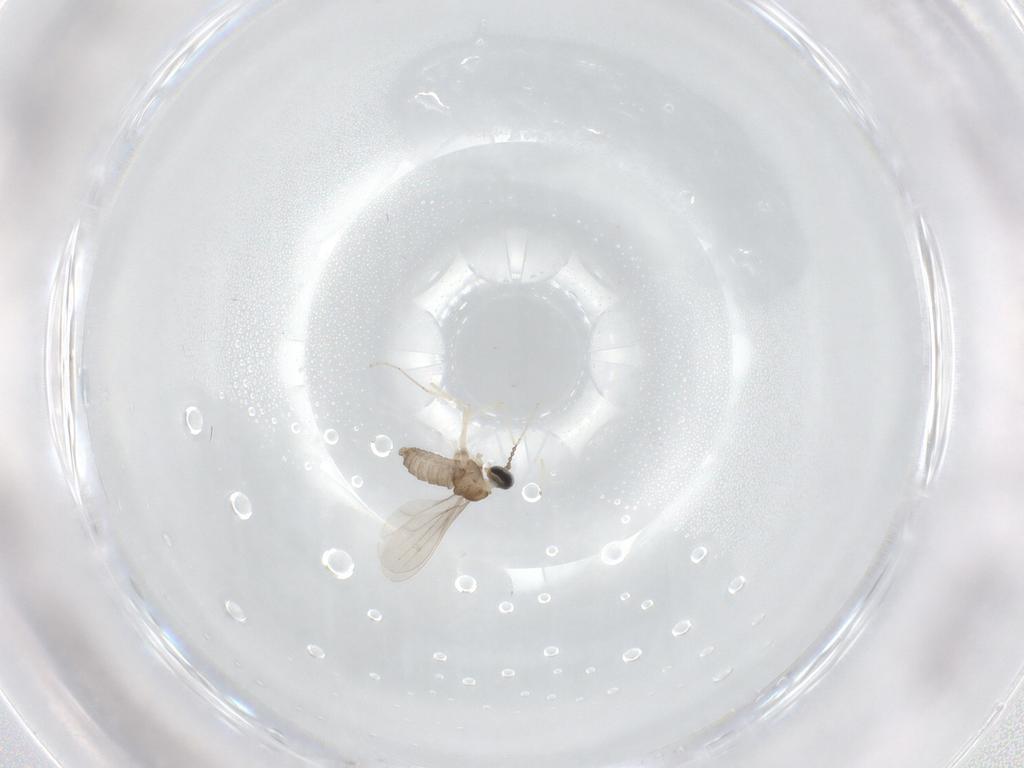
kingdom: Animalia
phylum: Arthropoda
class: Insecta
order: Diptera
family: Cecidomyiidae
